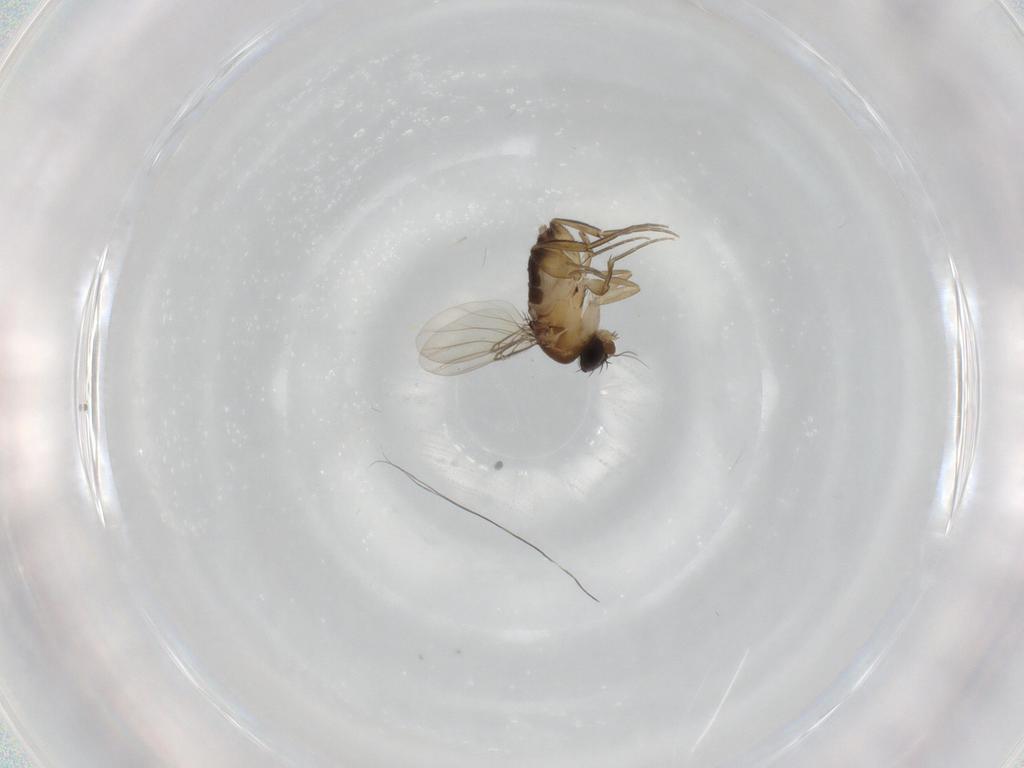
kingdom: Animalia
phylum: Arthropoda
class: Insecta
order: Diptera
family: Phoridae
